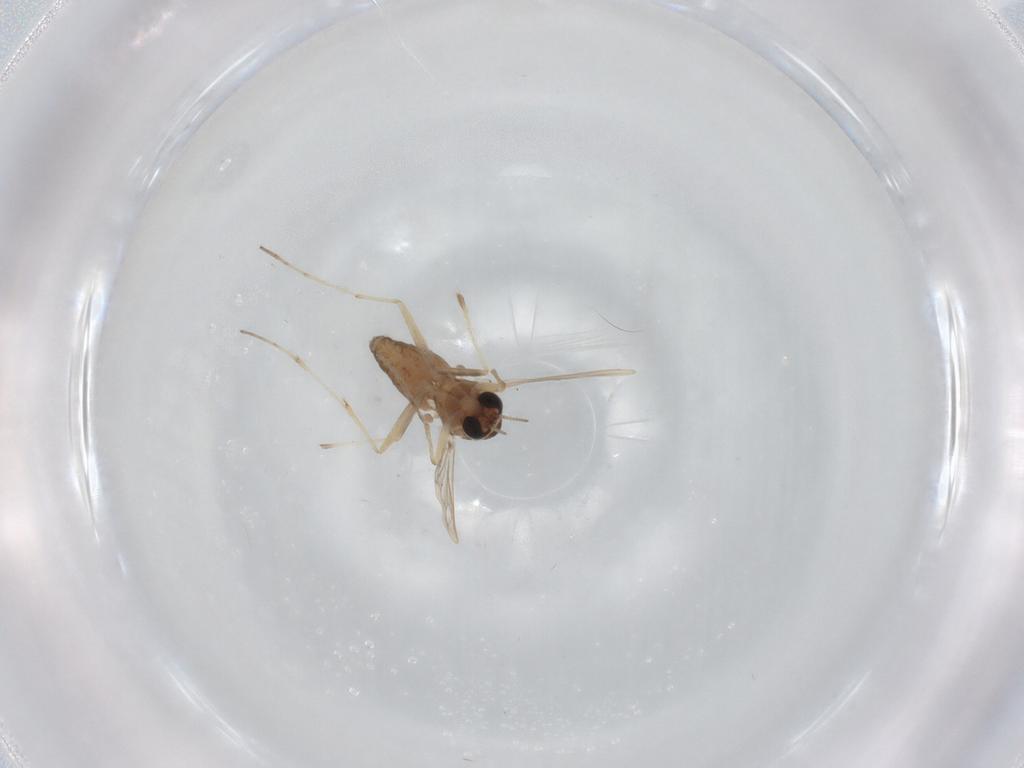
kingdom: Animalia
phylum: Arthropoda
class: Insecta
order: Diptera
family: Chironomidae
